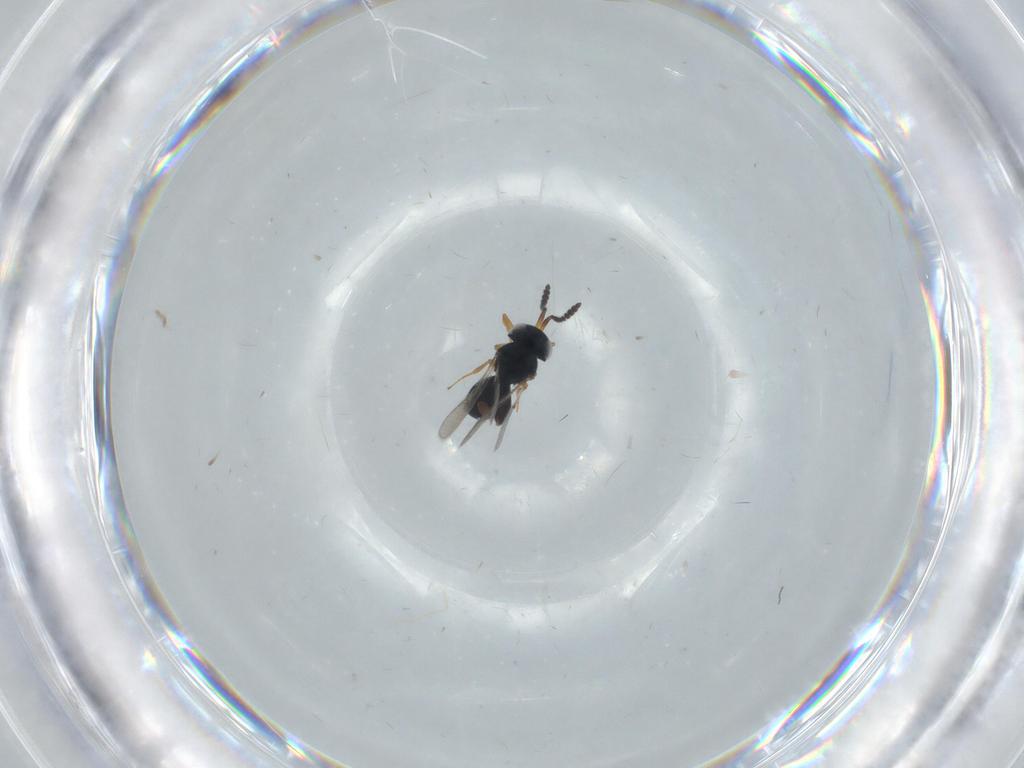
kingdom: Animalia
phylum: Arthropoda
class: Insecta
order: Hymenoptera
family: Scelionidae
